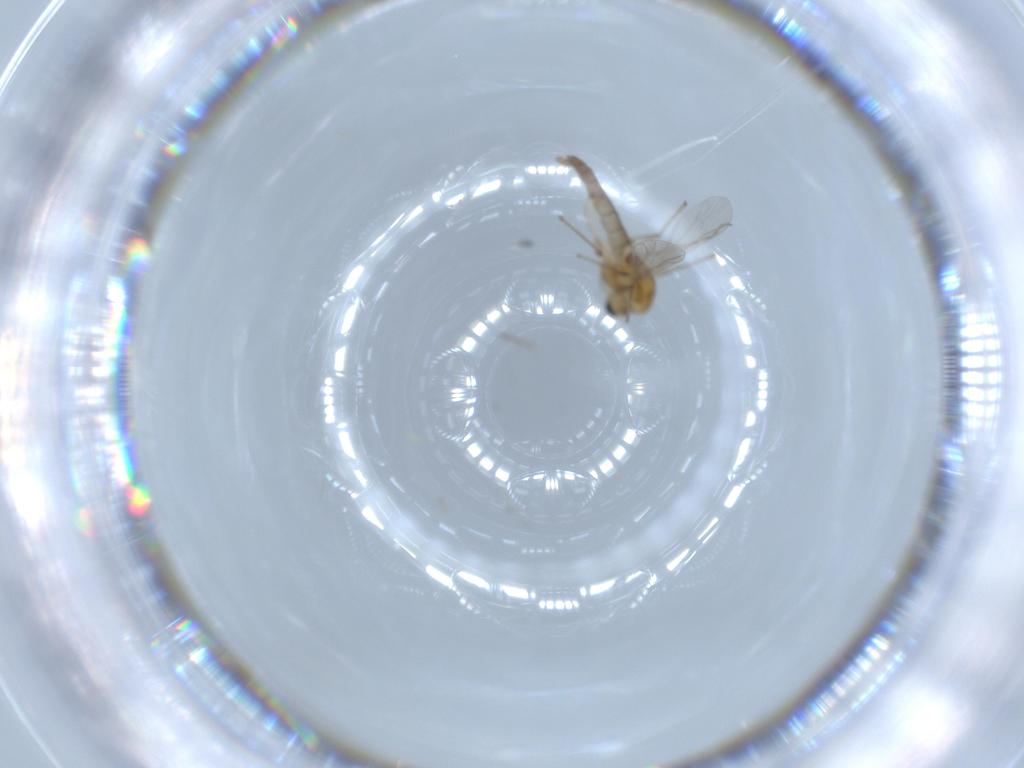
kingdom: Animalia
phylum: Arthropoda
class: Insecta
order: Diptera
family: Chironomidae
